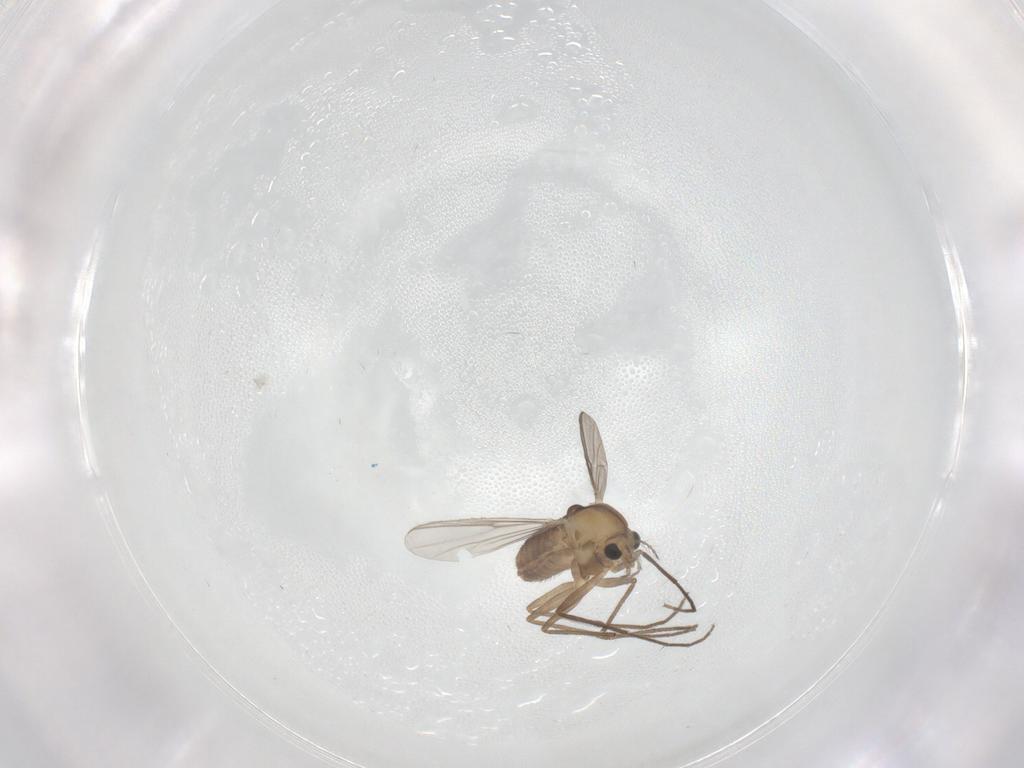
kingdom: Animalia
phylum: Arthropoda
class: Insecta
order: Diptera
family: Chironomidae
